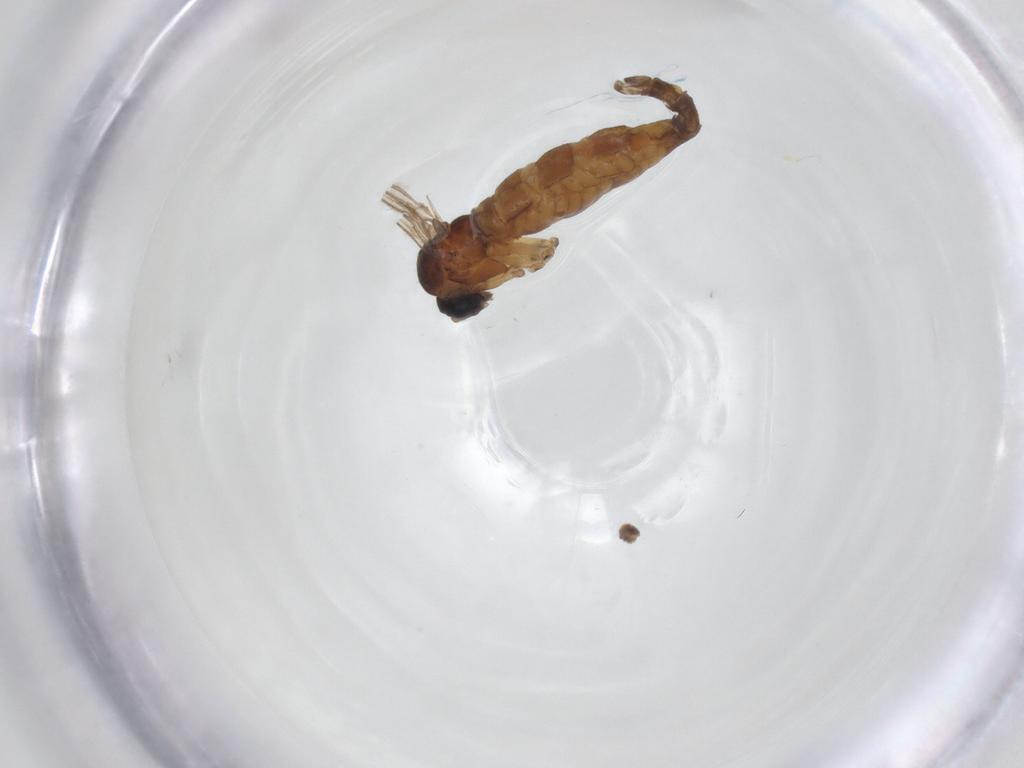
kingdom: Animalia
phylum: Arthropoda
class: Insecta
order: Diptera
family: Sciaridae
